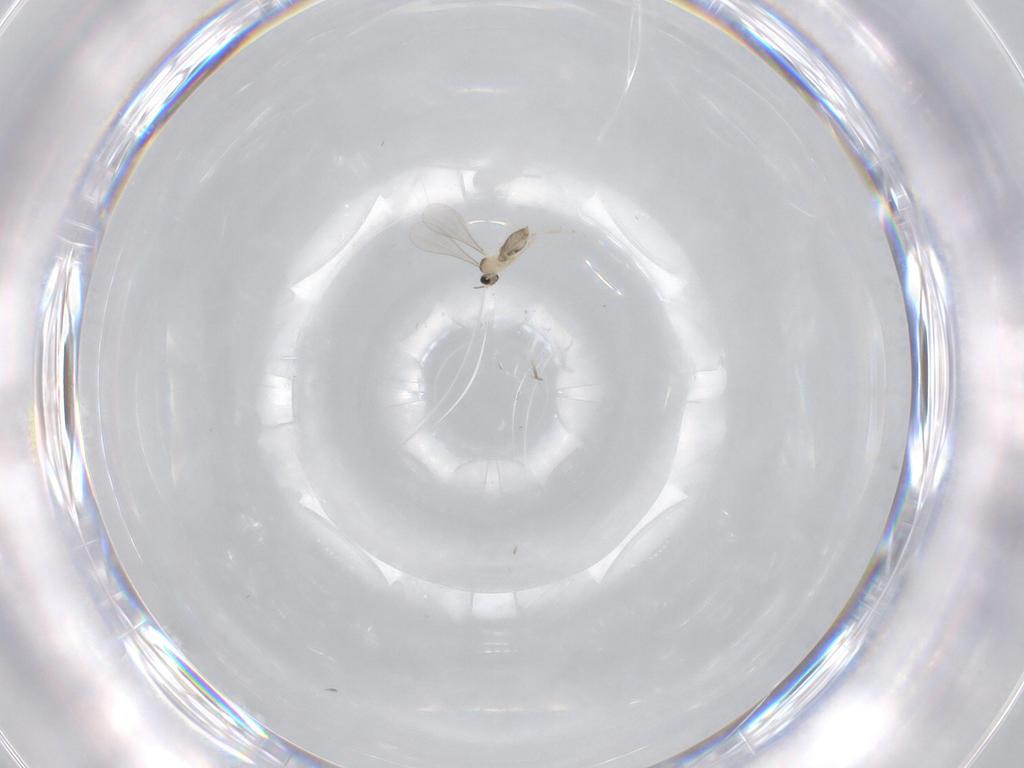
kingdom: Animalia
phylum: Arthropoda
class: Insecta
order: Diptera
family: Cecidomyiidae
